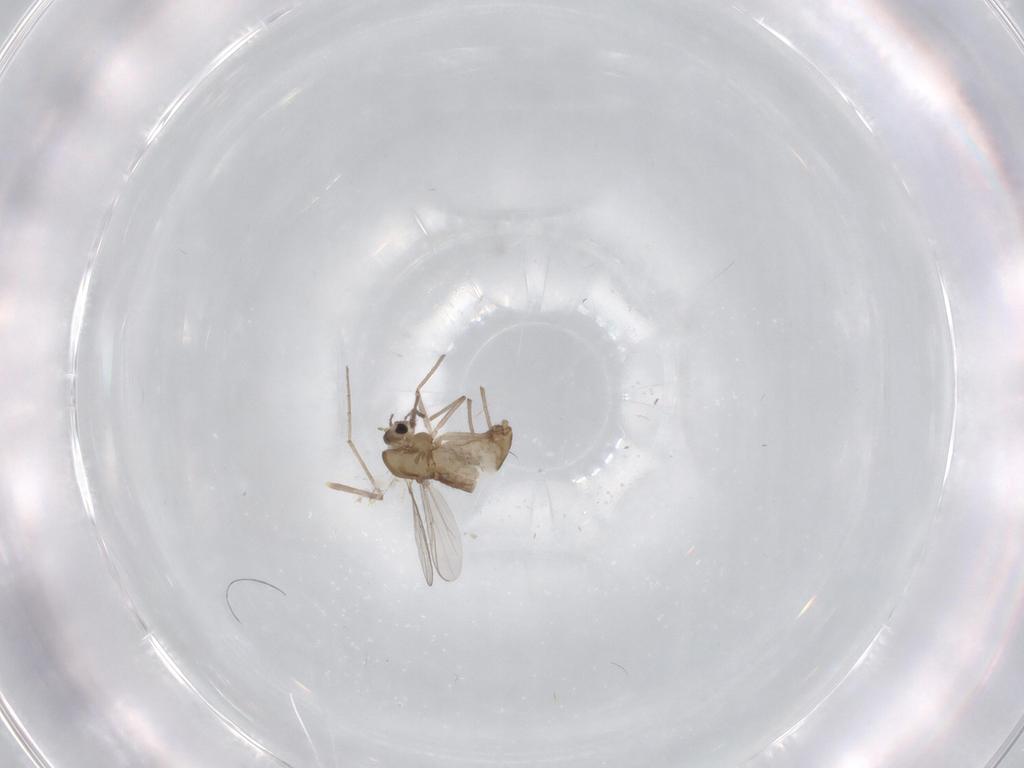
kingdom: Animalia
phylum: Arthropoda
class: Insecta
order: Diptera
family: Chironomidae
